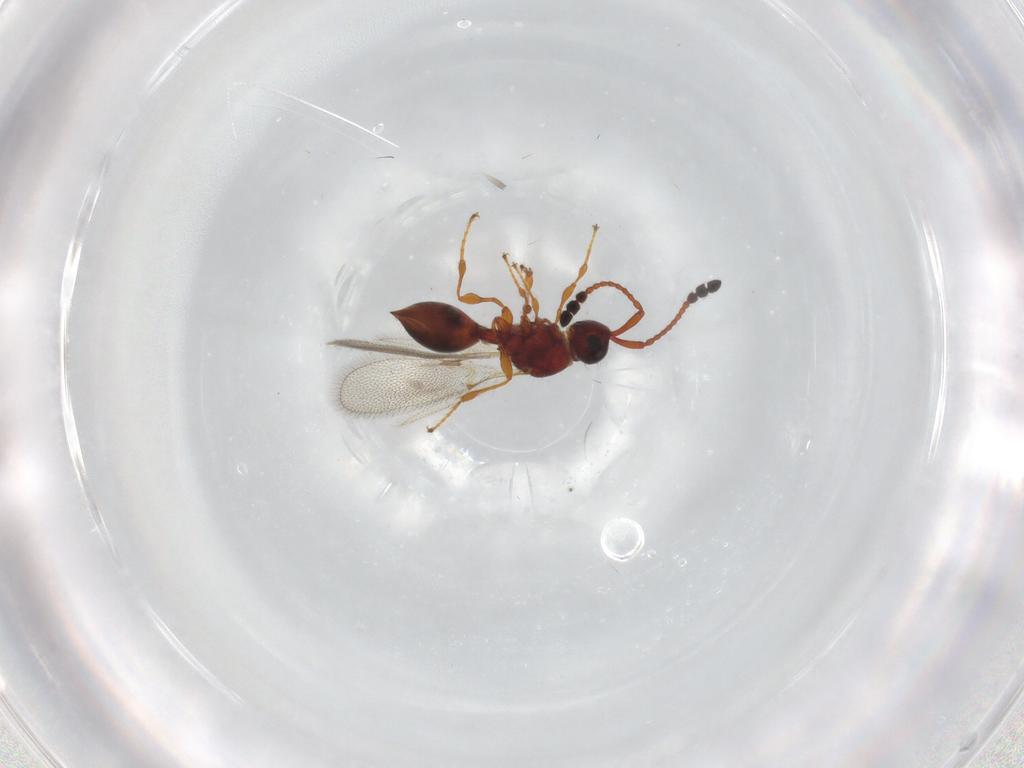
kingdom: Animalia
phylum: Arthropoda
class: Insecta
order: Hymenoptera
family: Diapriidae
